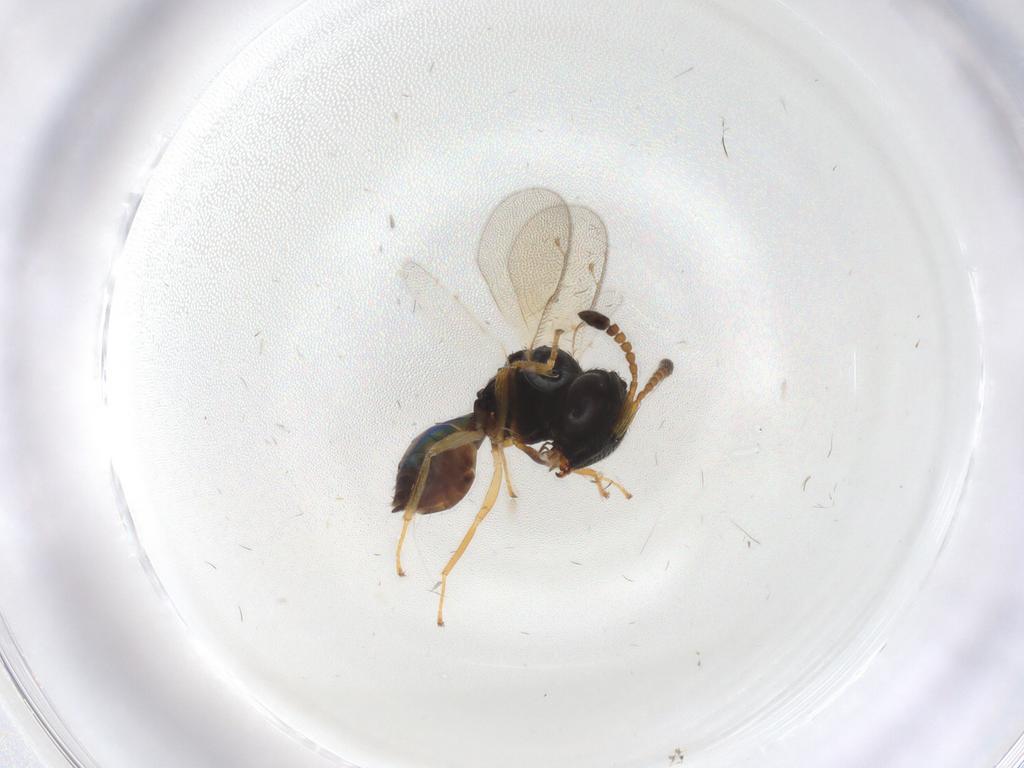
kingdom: Animalia
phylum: Arthropoda
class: Insecta
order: Hymenoptera
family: Pteromalidae
